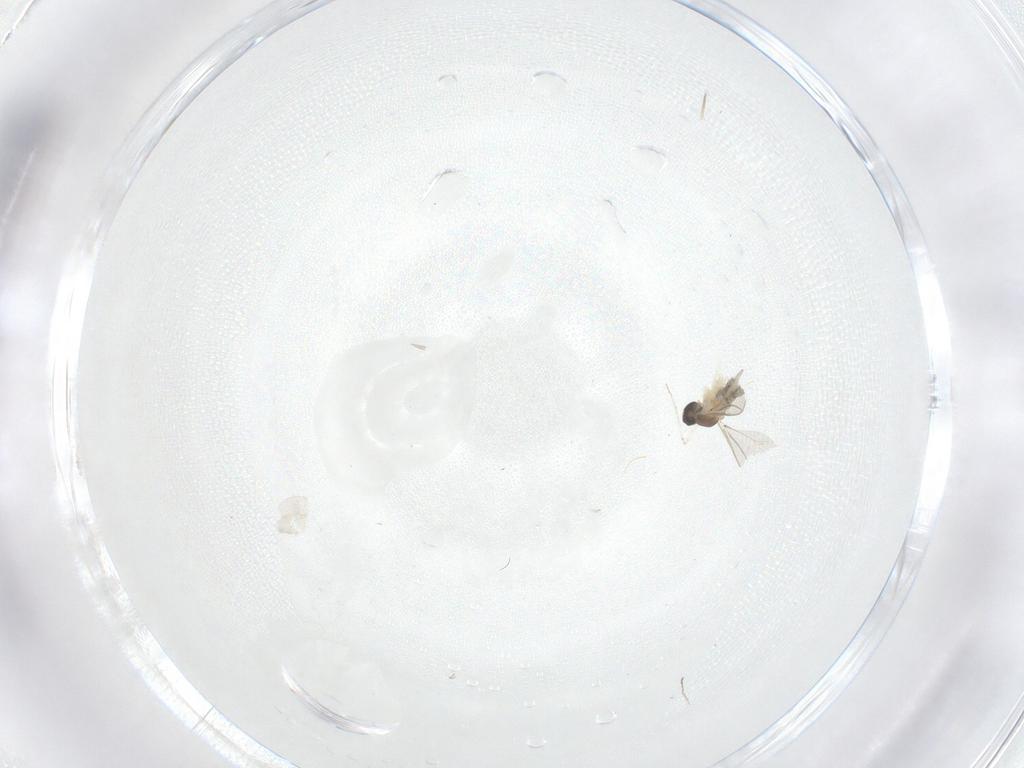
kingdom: Animalia
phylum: Arthropoda
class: Insecta
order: Diptera
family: Cecidomyiidae
